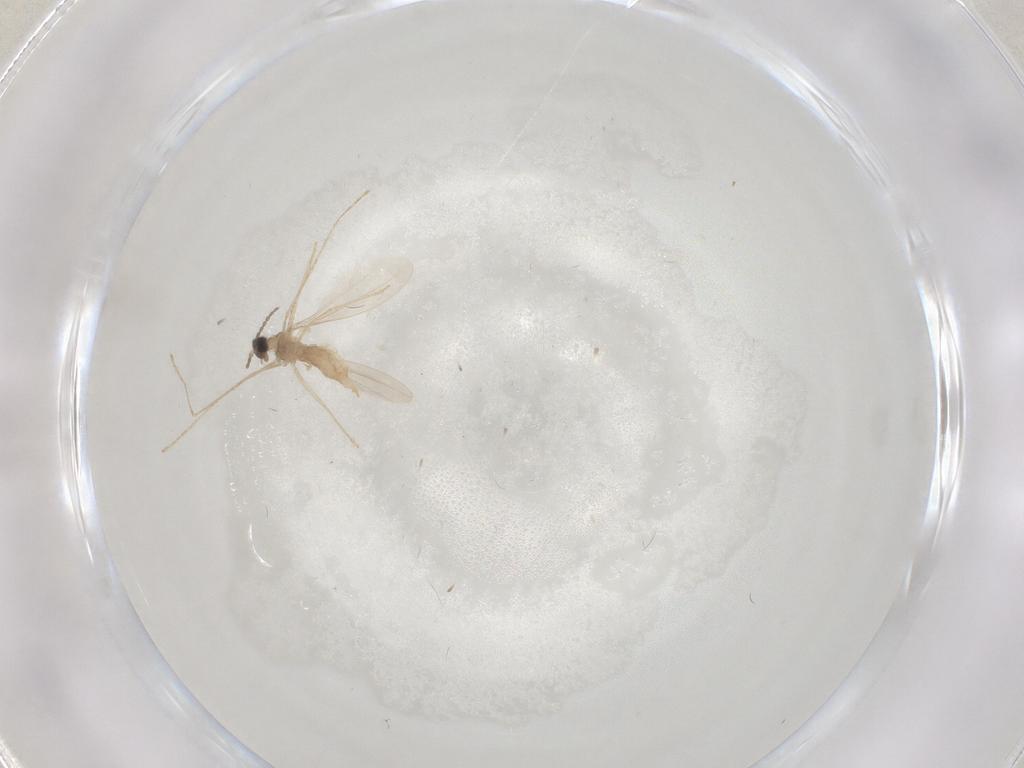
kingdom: Animalia
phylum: Arthropoda
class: Insecta
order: Diptera
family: Cecidomyiidae
